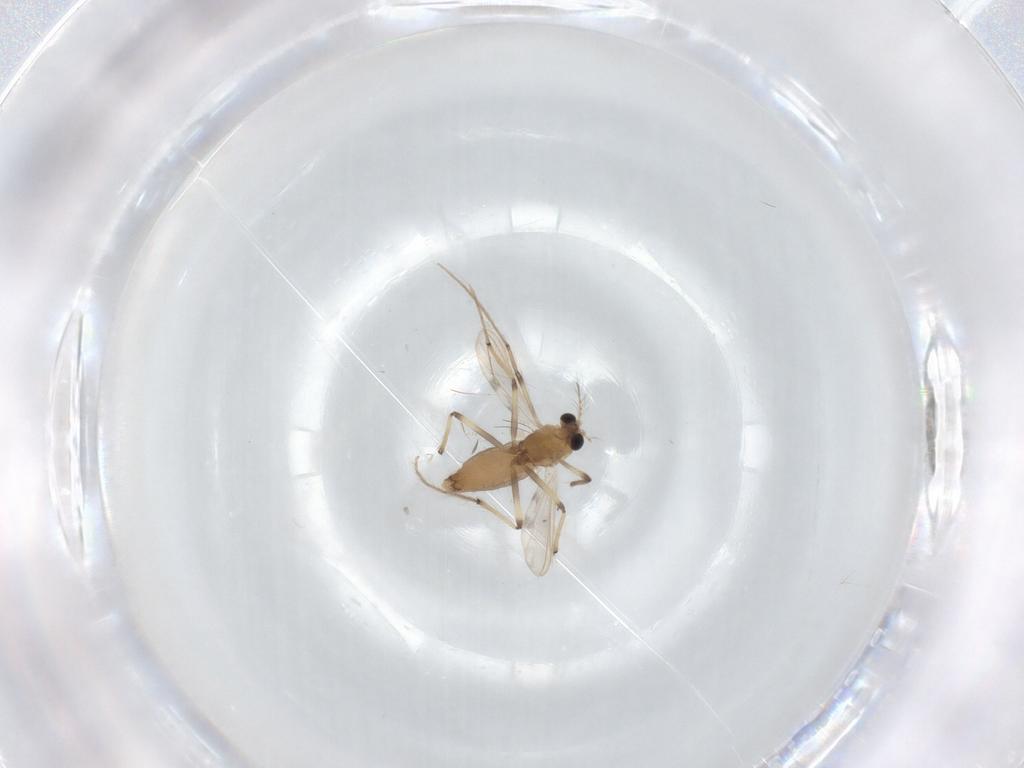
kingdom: Animalia
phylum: Arthropoda
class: Insecta
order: Diptera
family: Chironomidae
